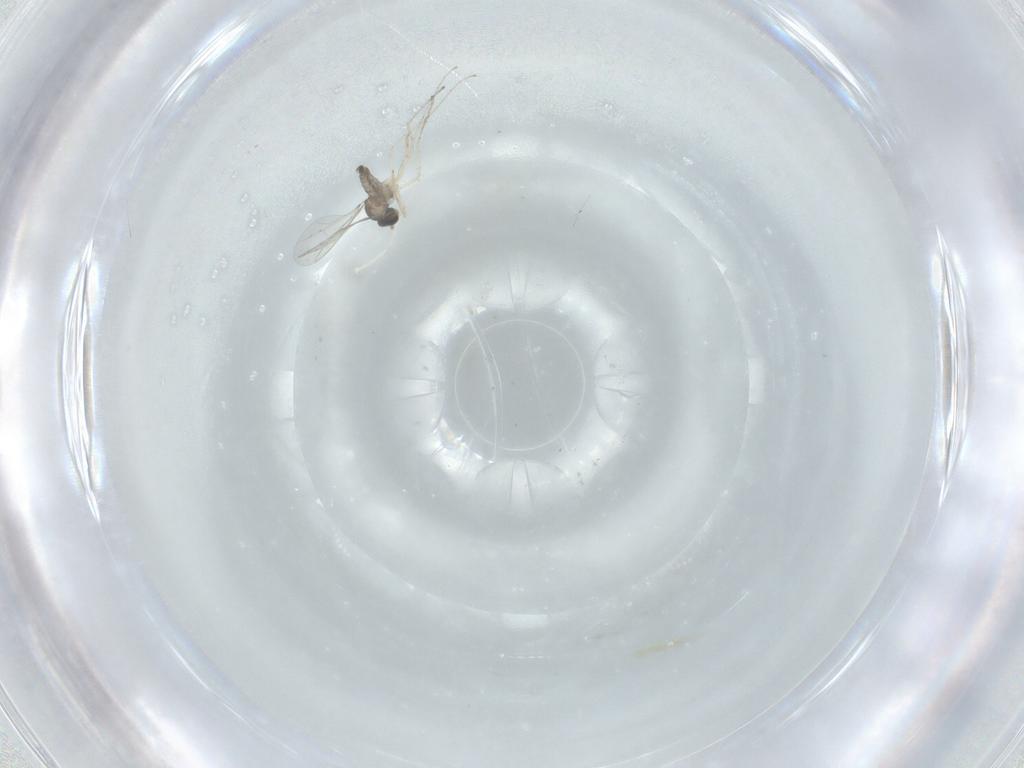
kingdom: Animalia
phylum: Arthropoda
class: Insecta
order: Diptera
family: Cecidomyiidae
